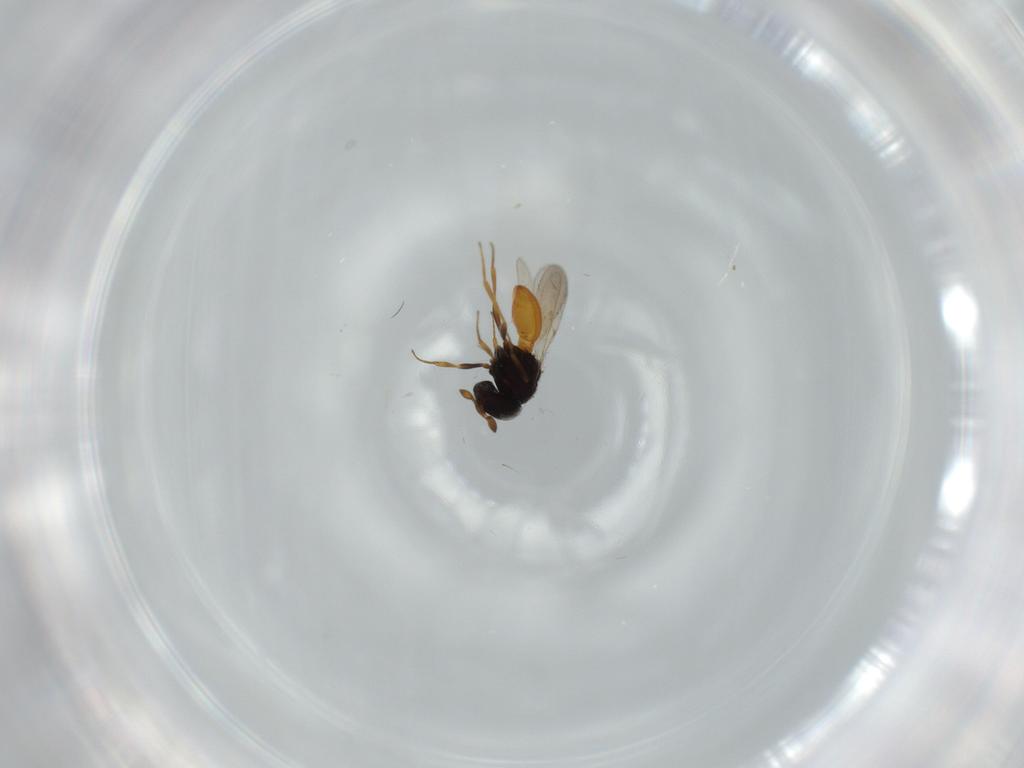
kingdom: Animalia
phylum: Arthropoda
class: Insecta
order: Hymenoptera
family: Scelionidae
